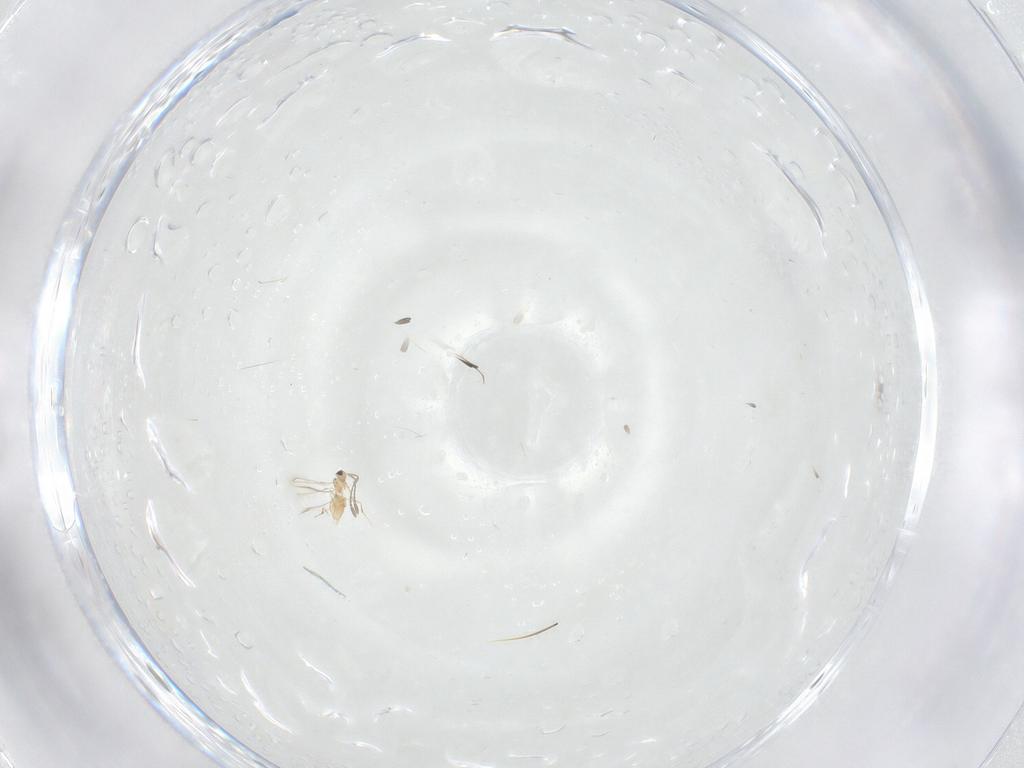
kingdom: Animalia
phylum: Arthropoda
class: Insecta
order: Hymenoptera
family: Mymaridae
